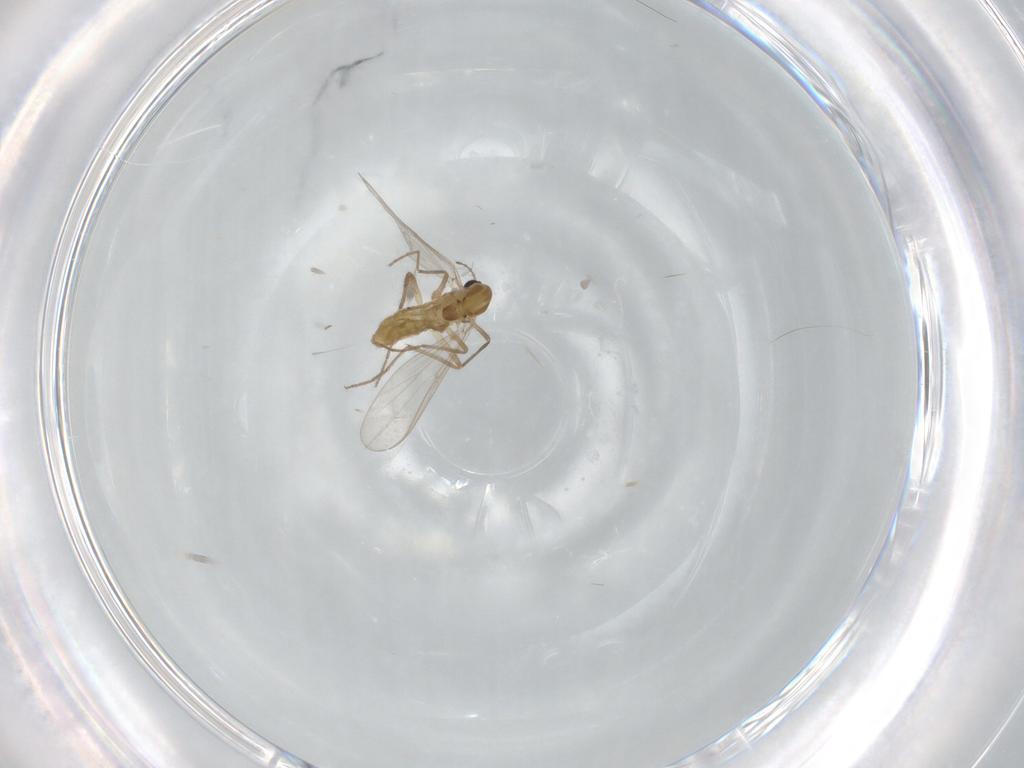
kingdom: Animalia
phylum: Arthropoda
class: Insecta
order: Diptera
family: Chironomidae
